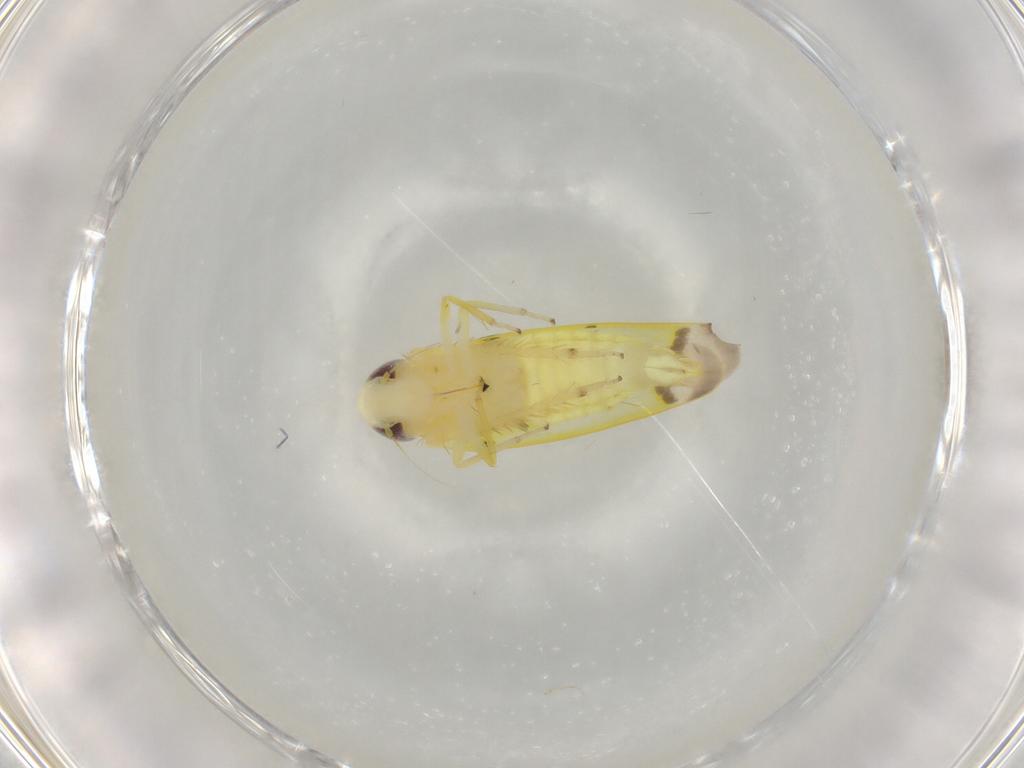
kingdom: Animalia
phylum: Arthropoda
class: Insecta
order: Hemiptera
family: Cicadellidae
